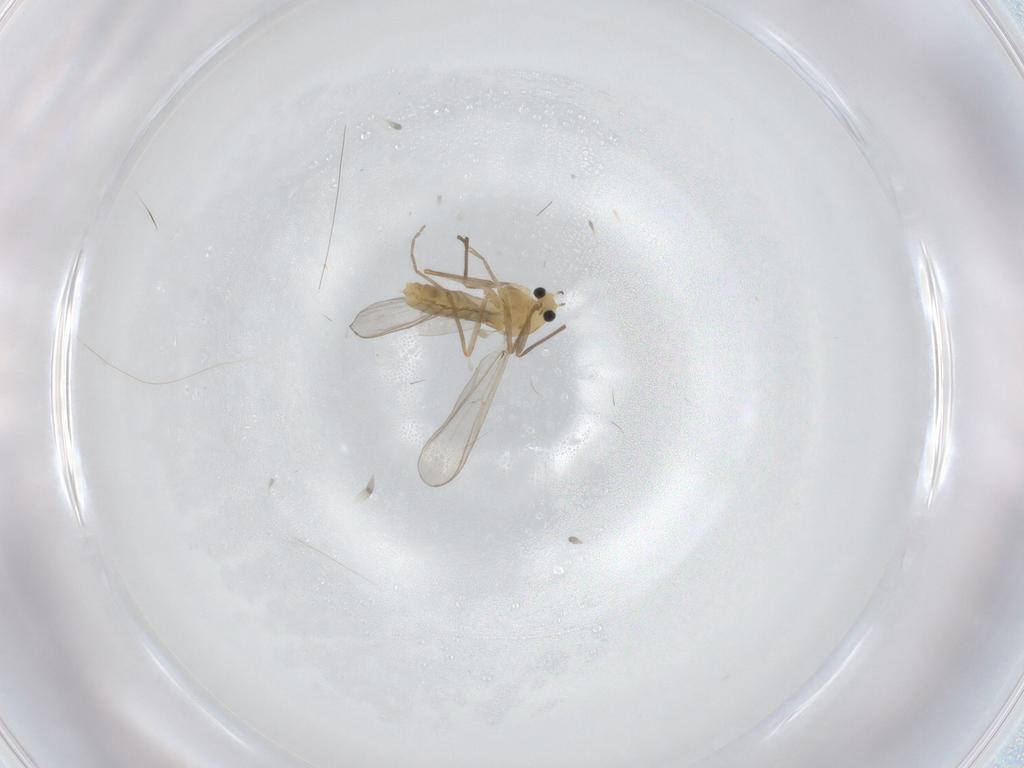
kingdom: Animalia
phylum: Arthropoda
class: Insecta
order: Diptera
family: Chironomidae
